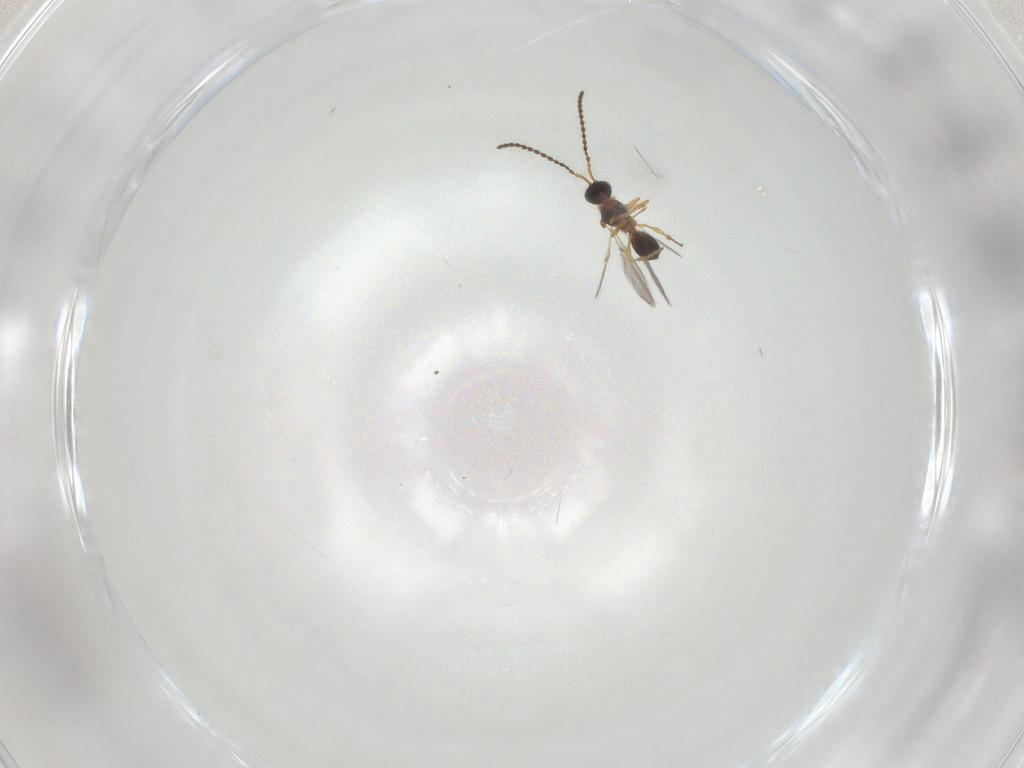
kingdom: Animalia
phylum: Arthropoda
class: Insecta
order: Hymenoptera
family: Diapriidae
